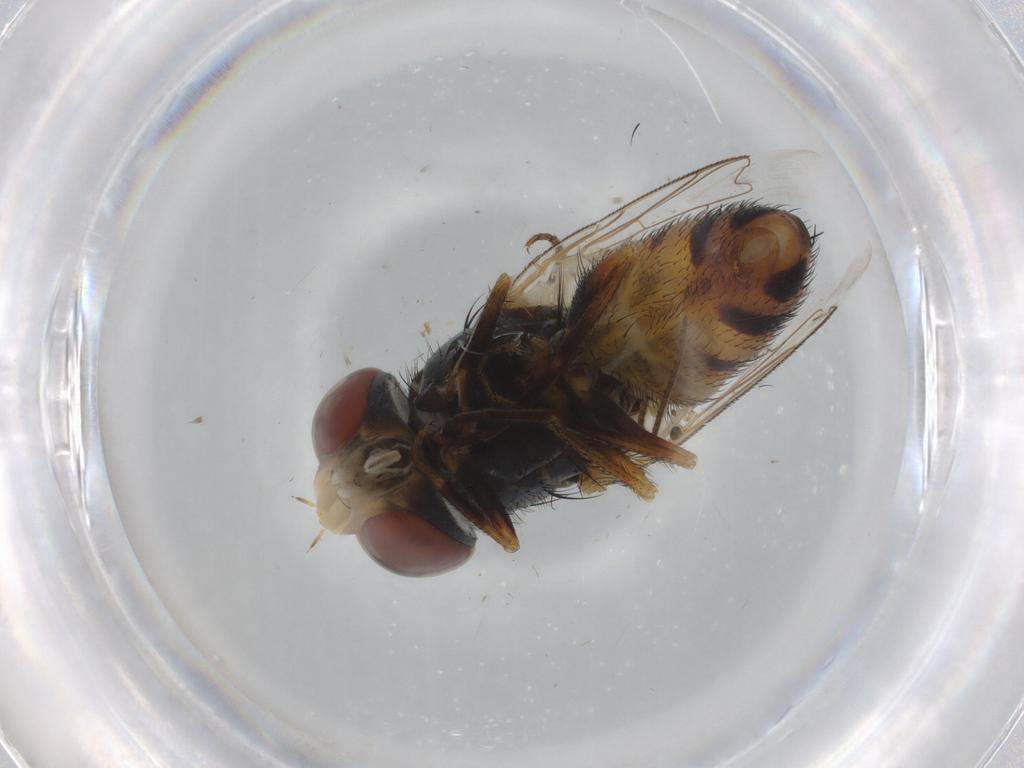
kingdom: Animalia
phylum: Arthropoda
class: Insecta
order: Diptera
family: Dolichopodidae
